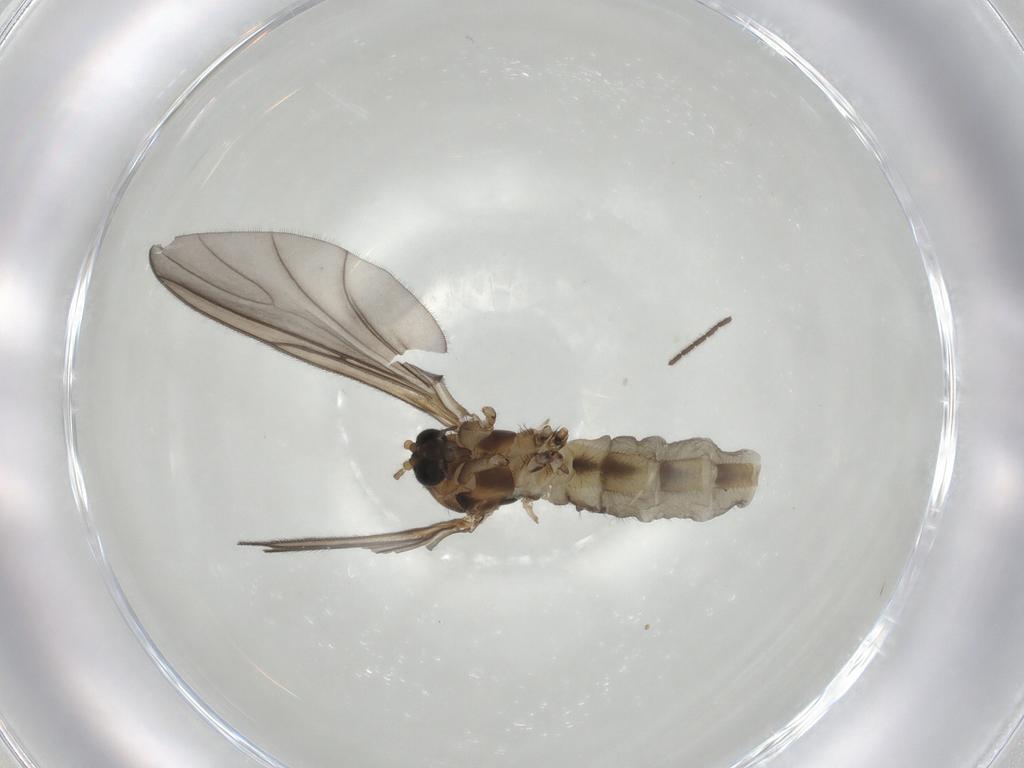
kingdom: Animalia
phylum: Arthropoda
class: Insecta
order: Diptera
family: Sciaridae
